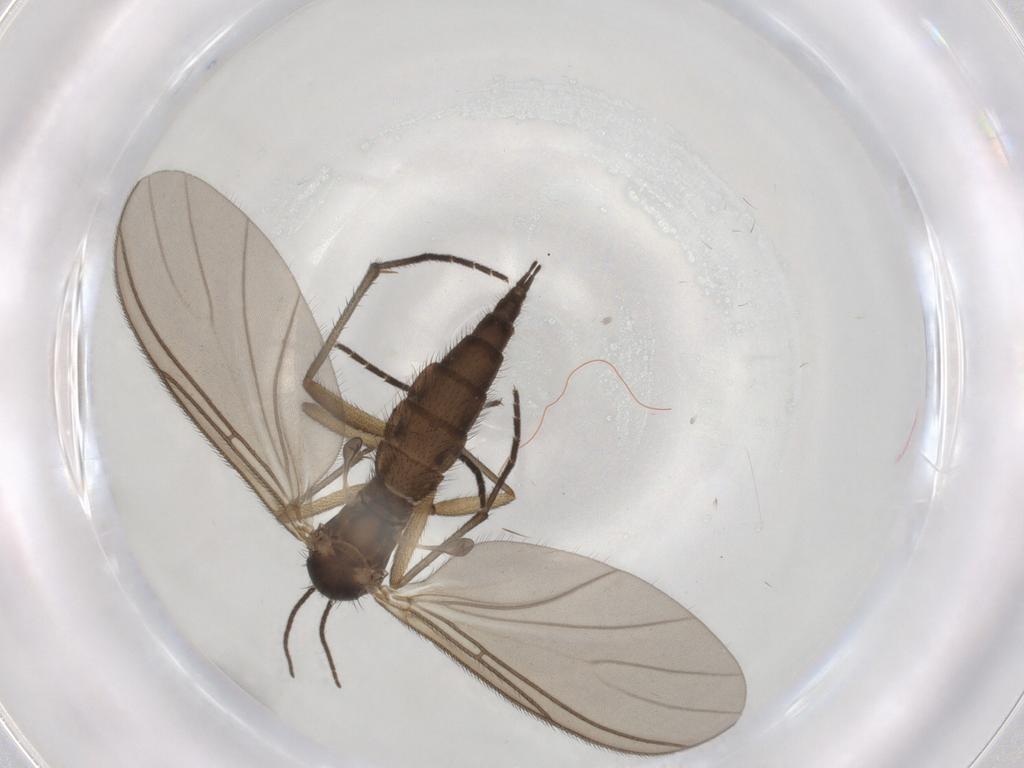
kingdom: Animalia
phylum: Arthropoda
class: Insecta
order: Diptera
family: Sciaridae
